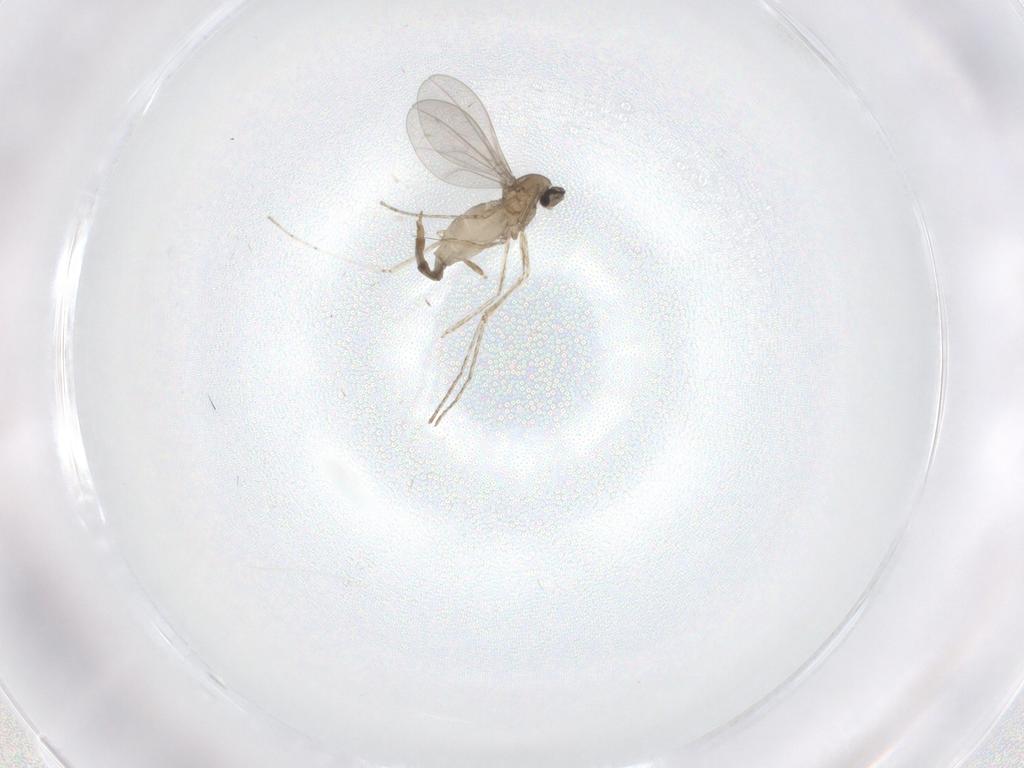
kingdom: Animalia
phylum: Arthropoda
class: Insecta
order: Diptera
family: Cecidomyiidae
